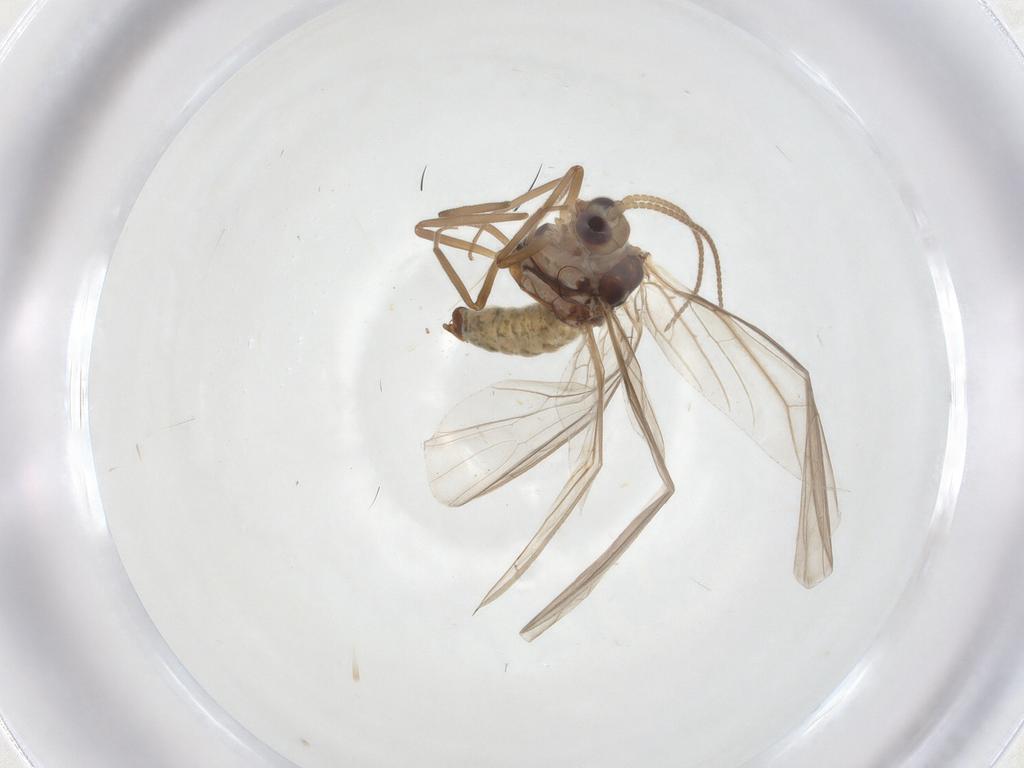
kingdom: Animalia
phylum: Arthropoda
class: Insecta
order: Neuroptera
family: Coniopterygidae
